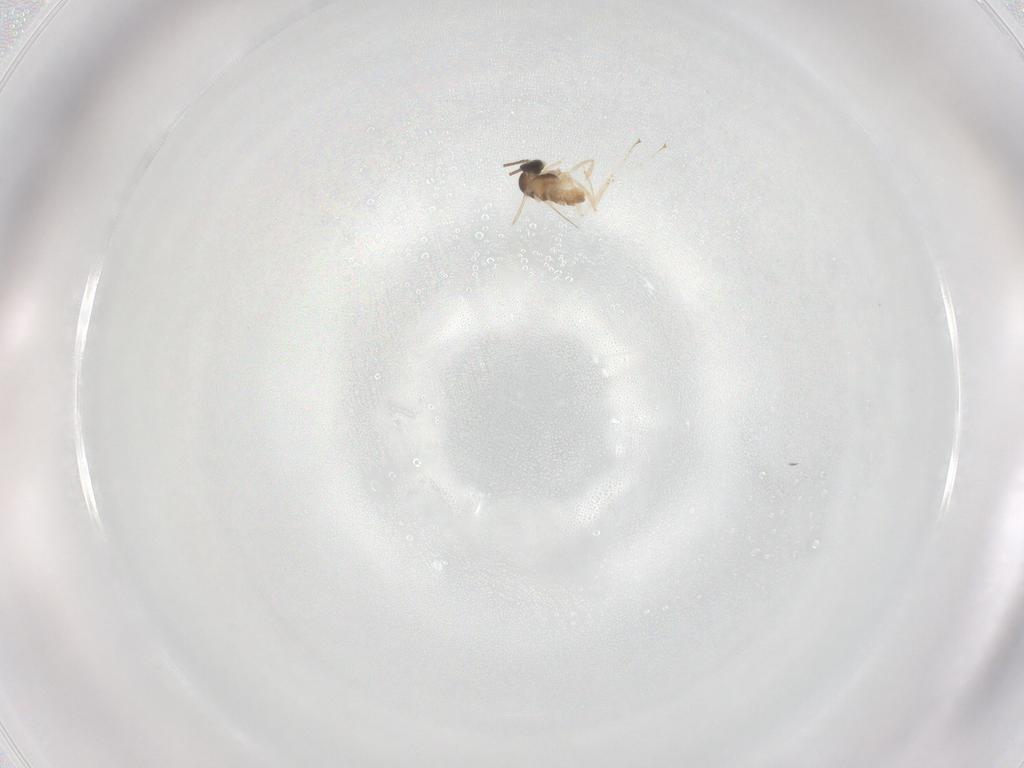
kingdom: Animalia
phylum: Arthropoda
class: Insecta
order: Diptera
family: Cecidomyiidae
